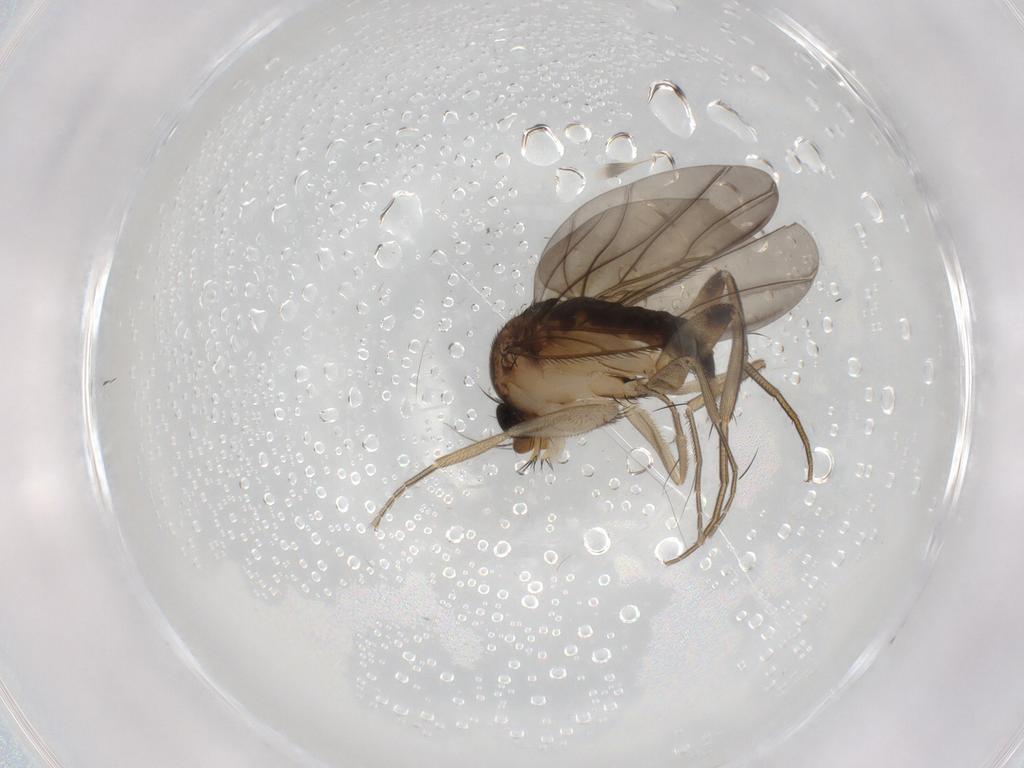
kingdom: Animalia
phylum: Arthropoda
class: Insecta
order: Diptera
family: Phoridae
